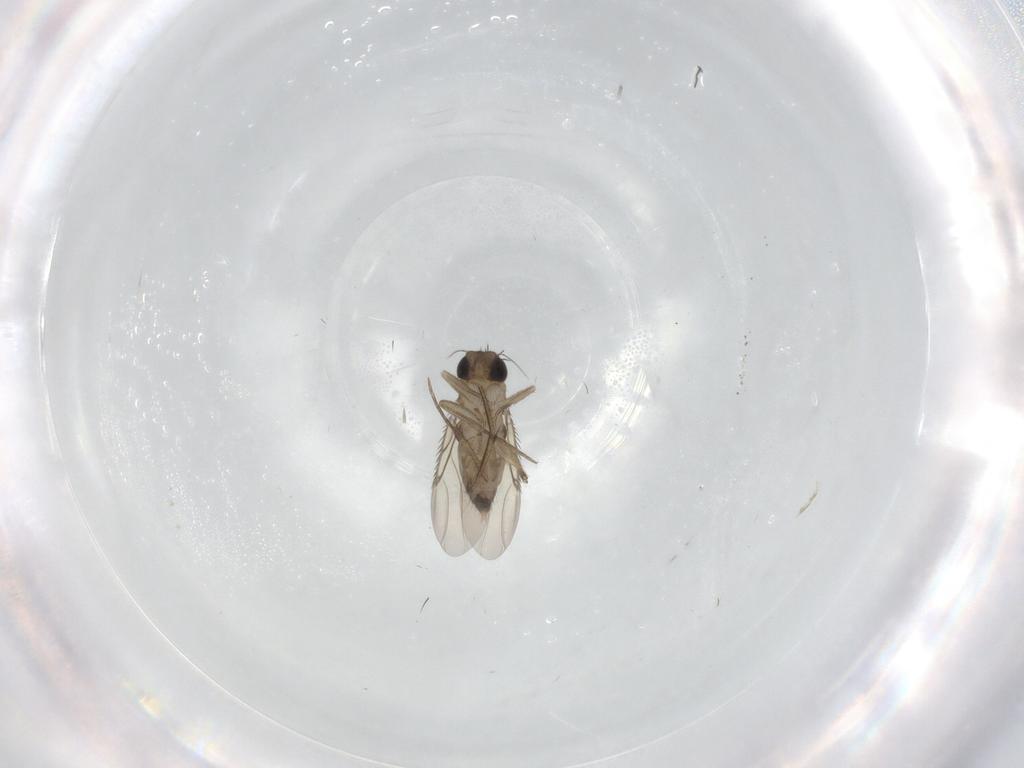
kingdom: Animalia
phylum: Arthropoda
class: Insecta
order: Diptera
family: Phoridae
